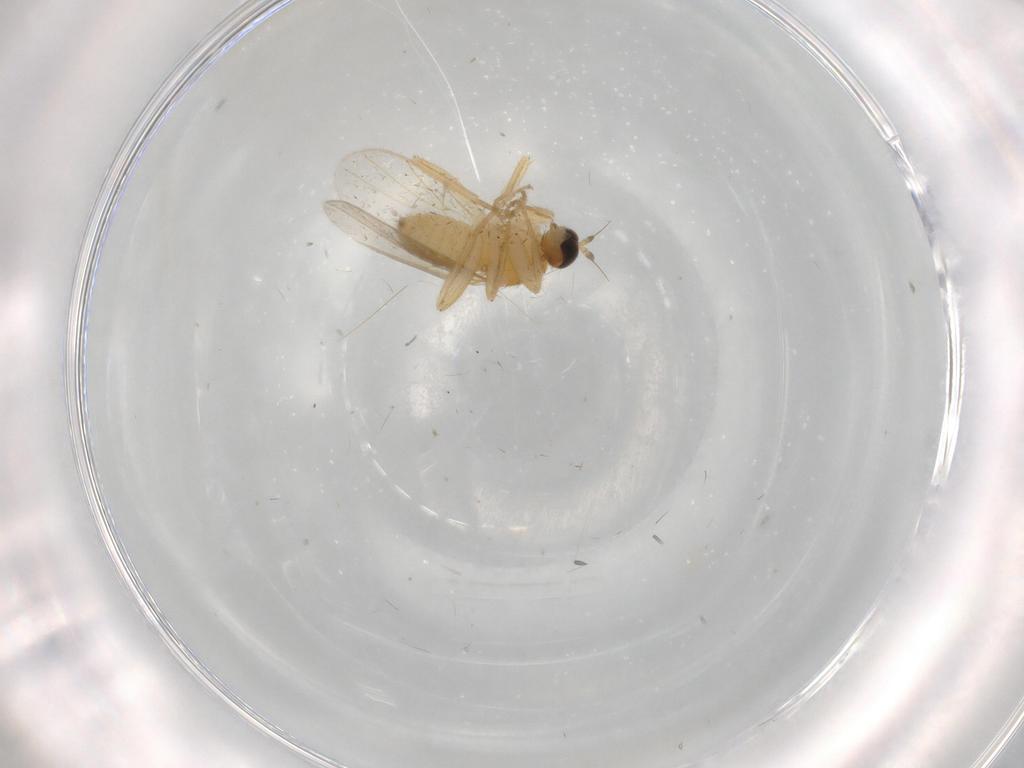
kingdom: Animalia
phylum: Arthropoda
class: Insecta
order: Diptera
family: Hybotidae
